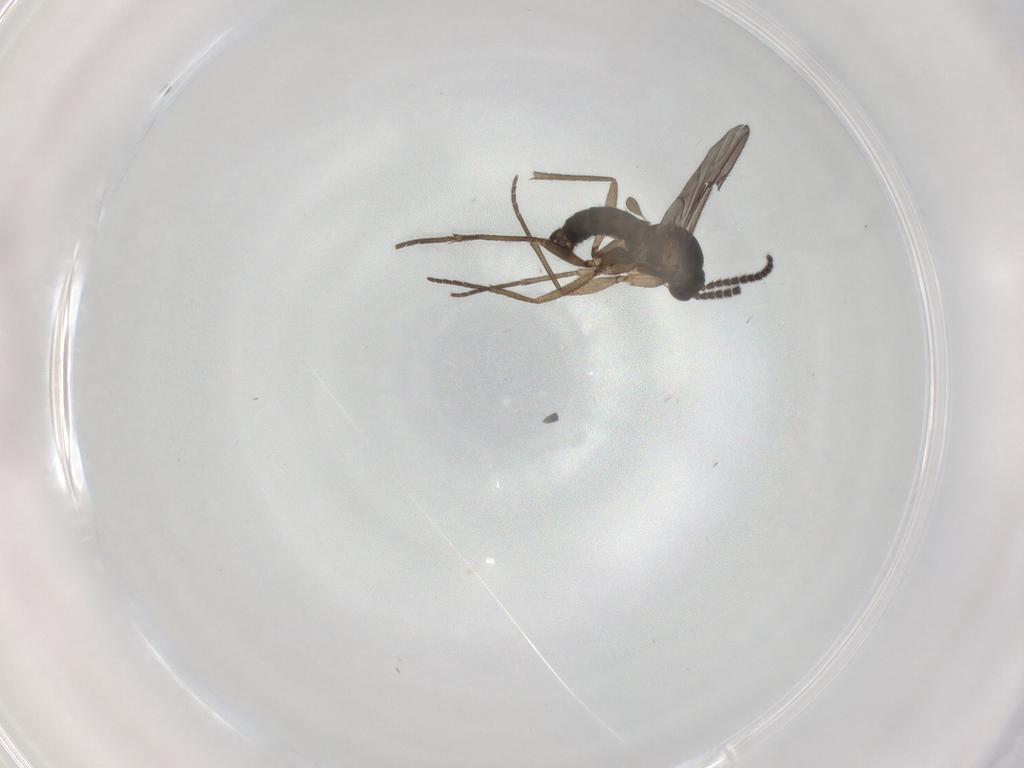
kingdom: Animalia
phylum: Arthropoda
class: Insecta
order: Diptera
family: Sciaridae
